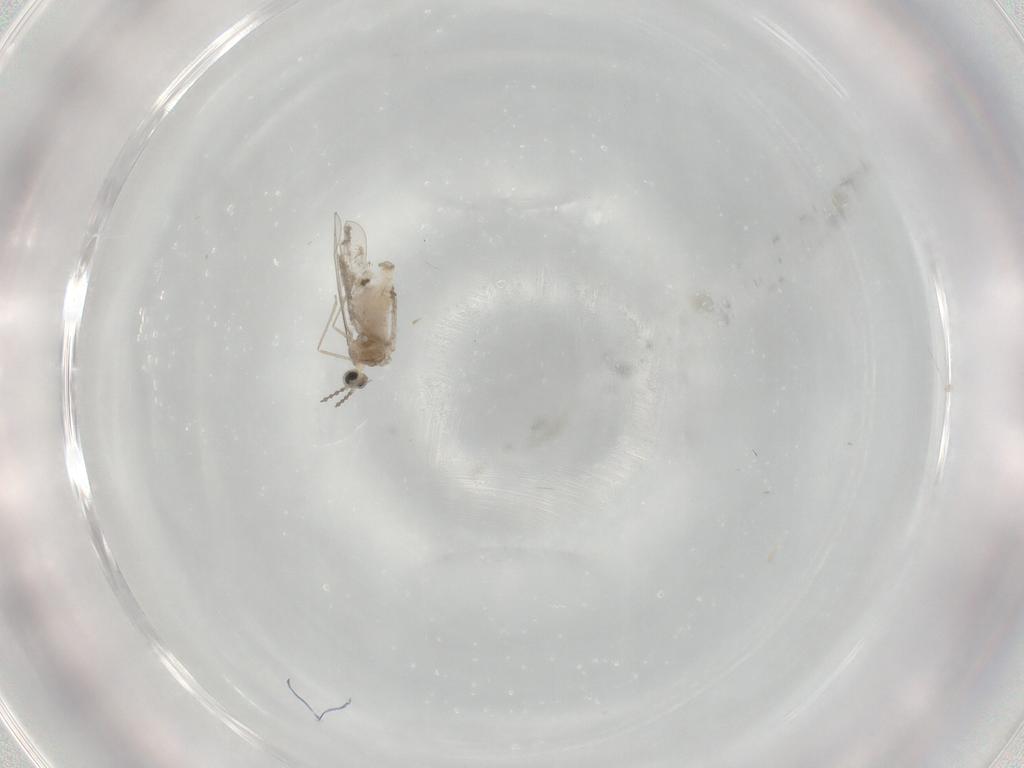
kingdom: Animalia
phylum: Arthropoda
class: Insecta
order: Diptera
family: Cecidomyiidae
